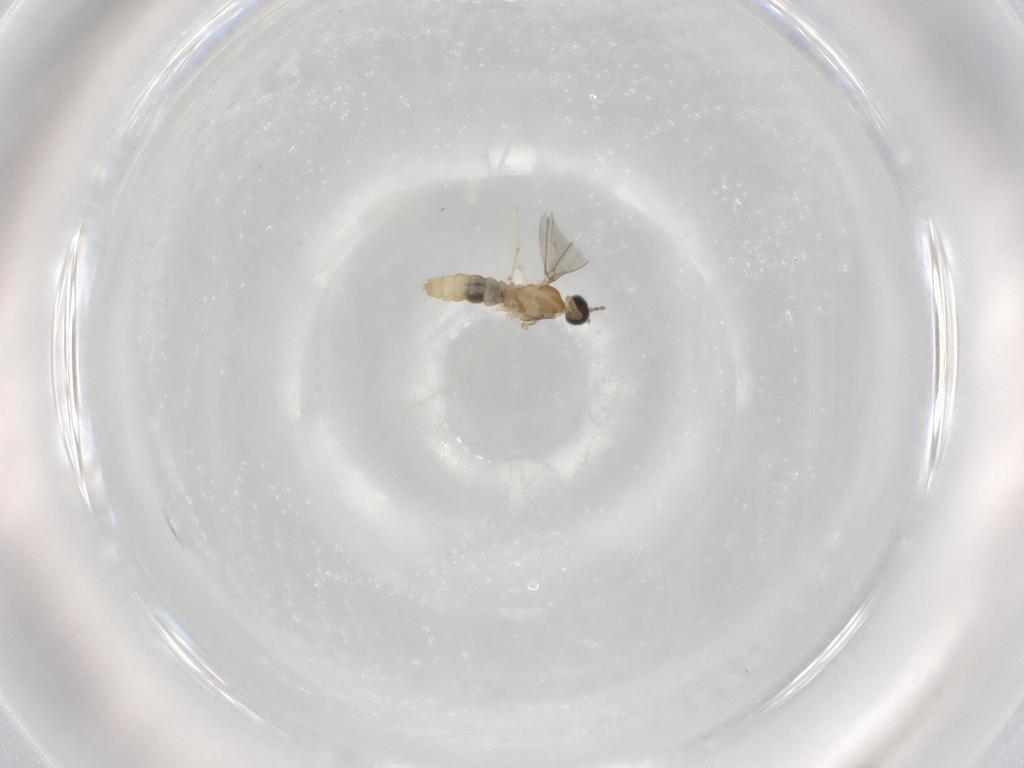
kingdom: Animalia
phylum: Arthropoda
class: Insecta
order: Diptera
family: Cecidomyiidae
